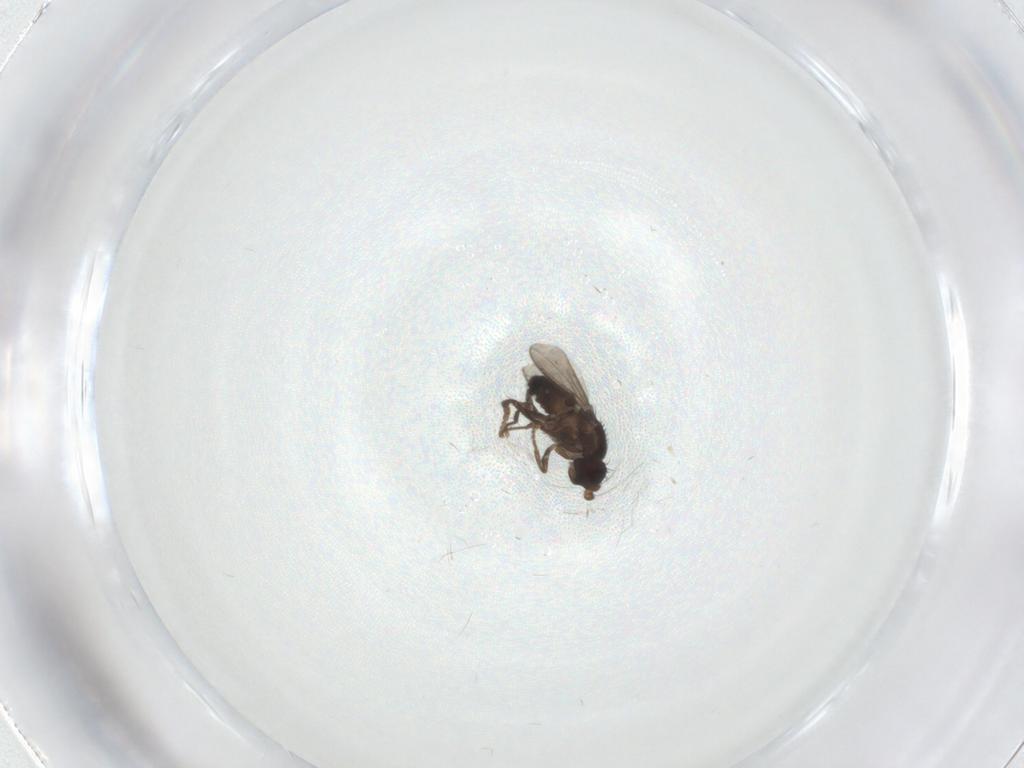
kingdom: Animalia
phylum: Arthropoda
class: Insecta
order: Diptera
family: Sphaeroceridae
